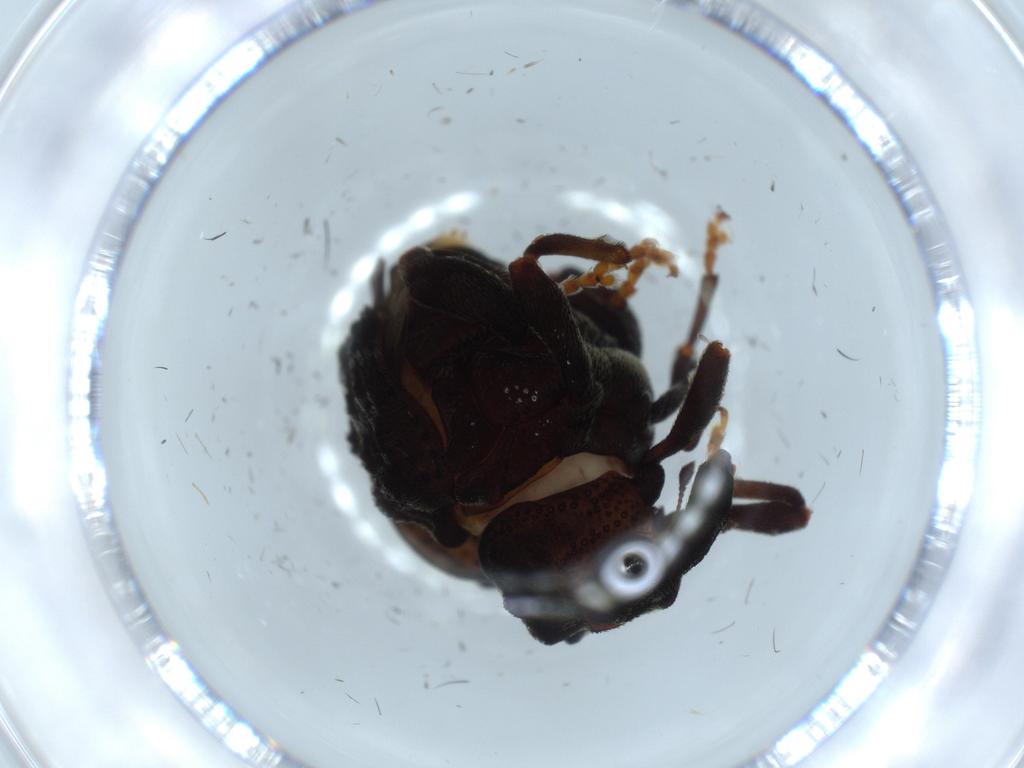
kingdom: Animalia
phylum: Arthropoda
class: Insecta
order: Coleoptera
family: Curculionidae
